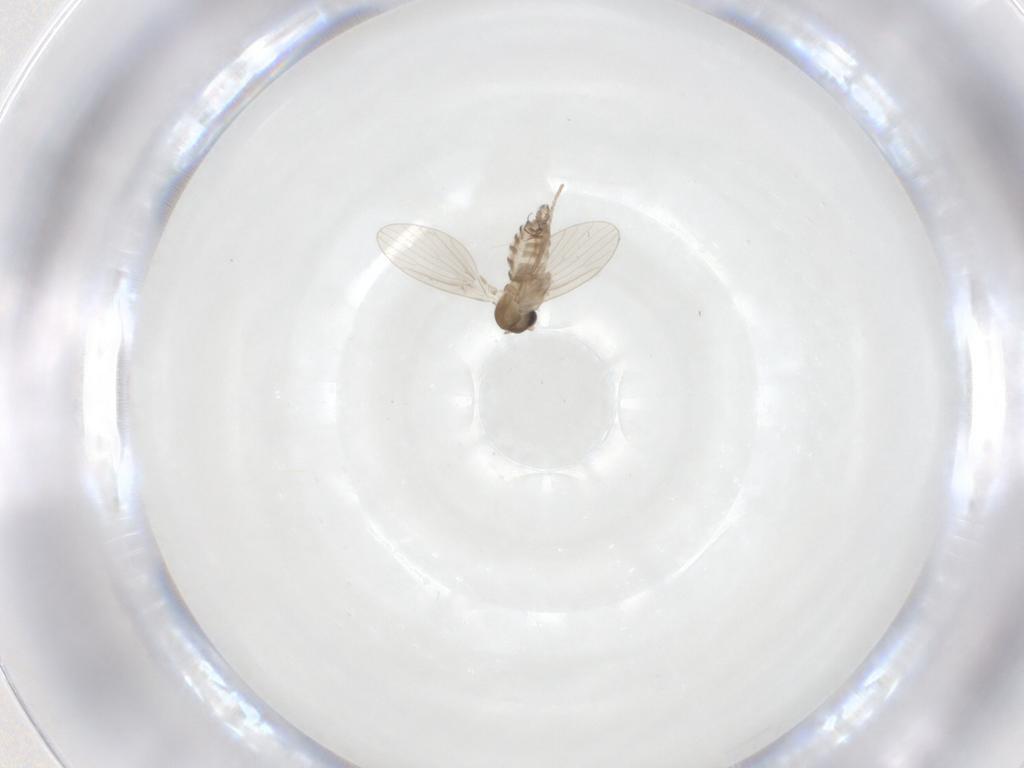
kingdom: Animalia
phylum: Arthropoda
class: Insecta
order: Diptera
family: Psychodidae
